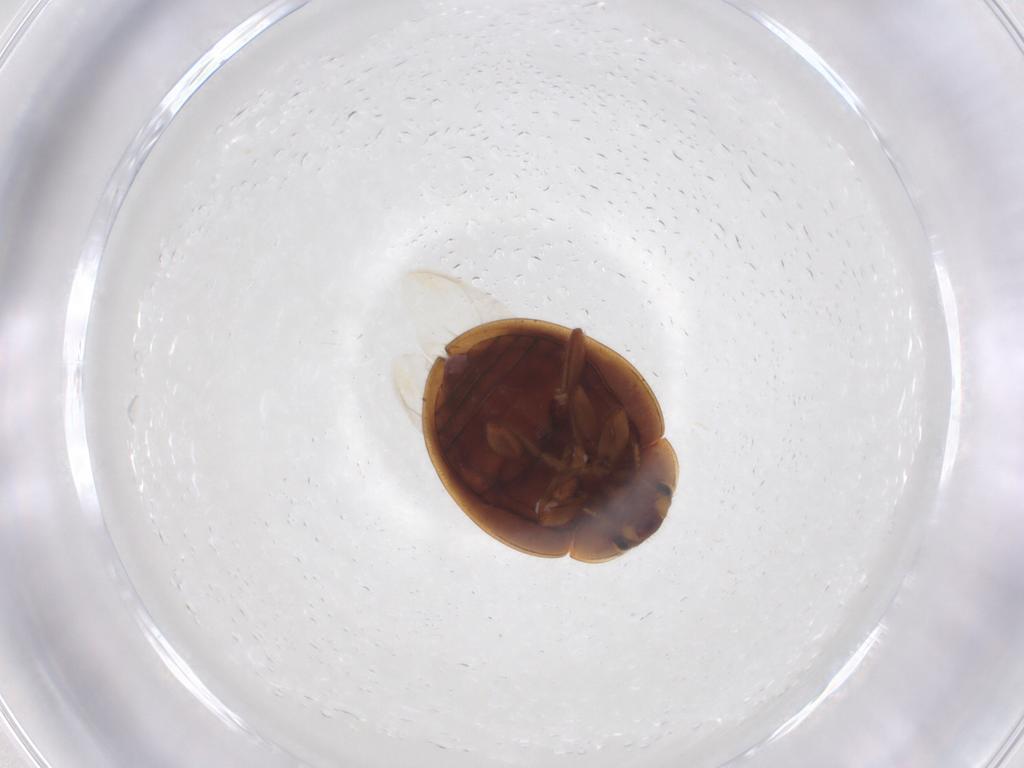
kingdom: Animalia
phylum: Arthropoda
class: Insecta
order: Coleoptera
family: Coccinellidae
